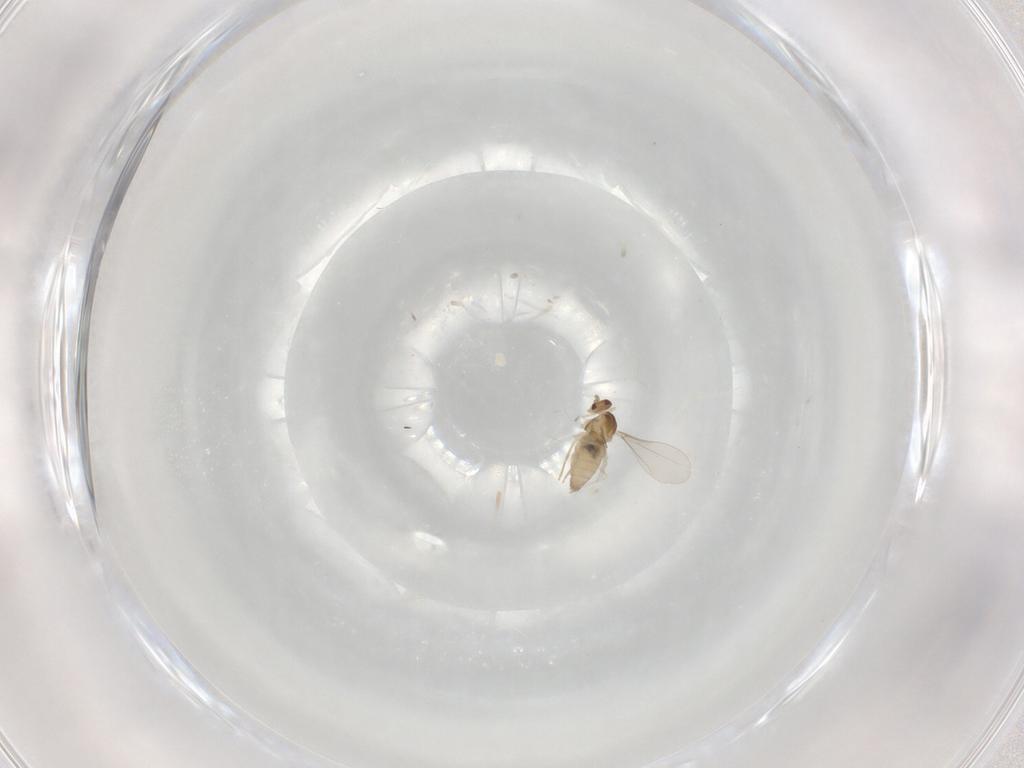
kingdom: Animalia
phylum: Arthropoda
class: Insecta
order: Diptera
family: Cecidomyiidae
